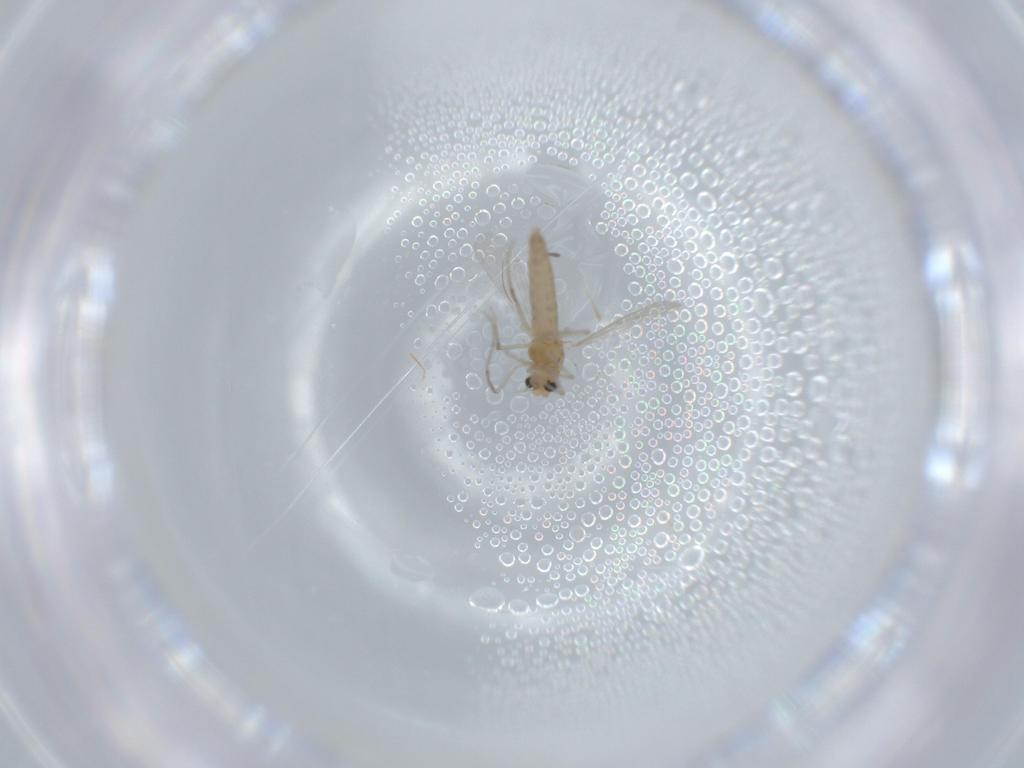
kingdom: Animalia
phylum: Arthropoda
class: Insecta
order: Diptera
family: Chironomidae
